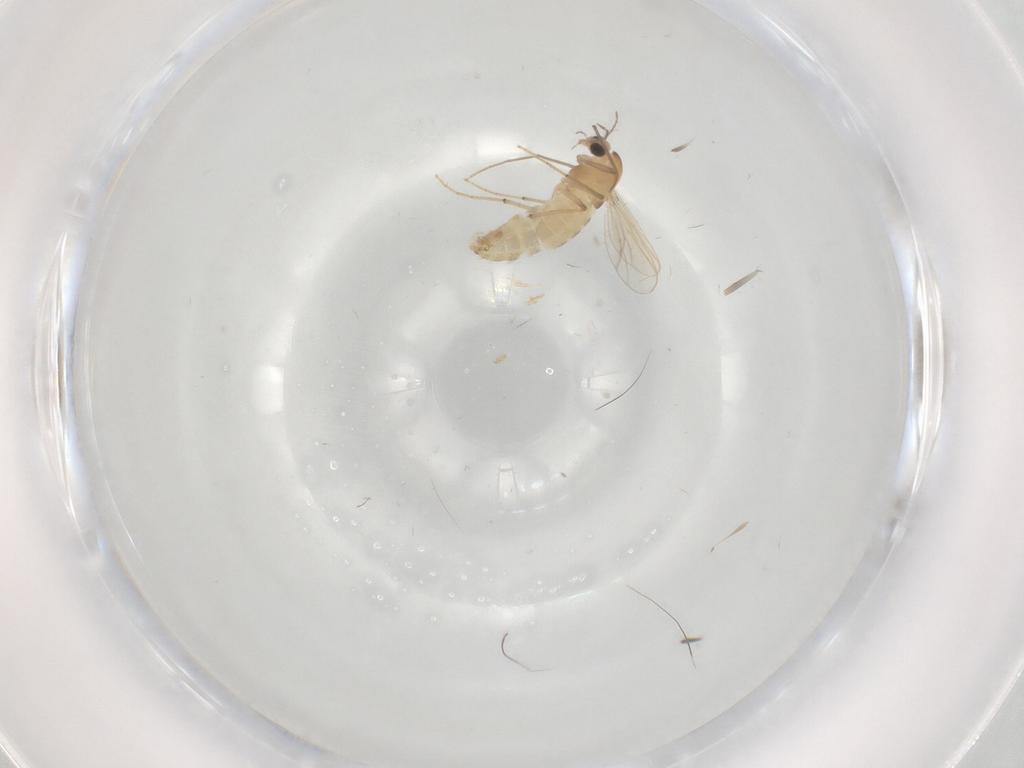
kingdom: Animalia
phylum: Arthropoda
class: Insecta
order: Diptera
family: Chironomidae
